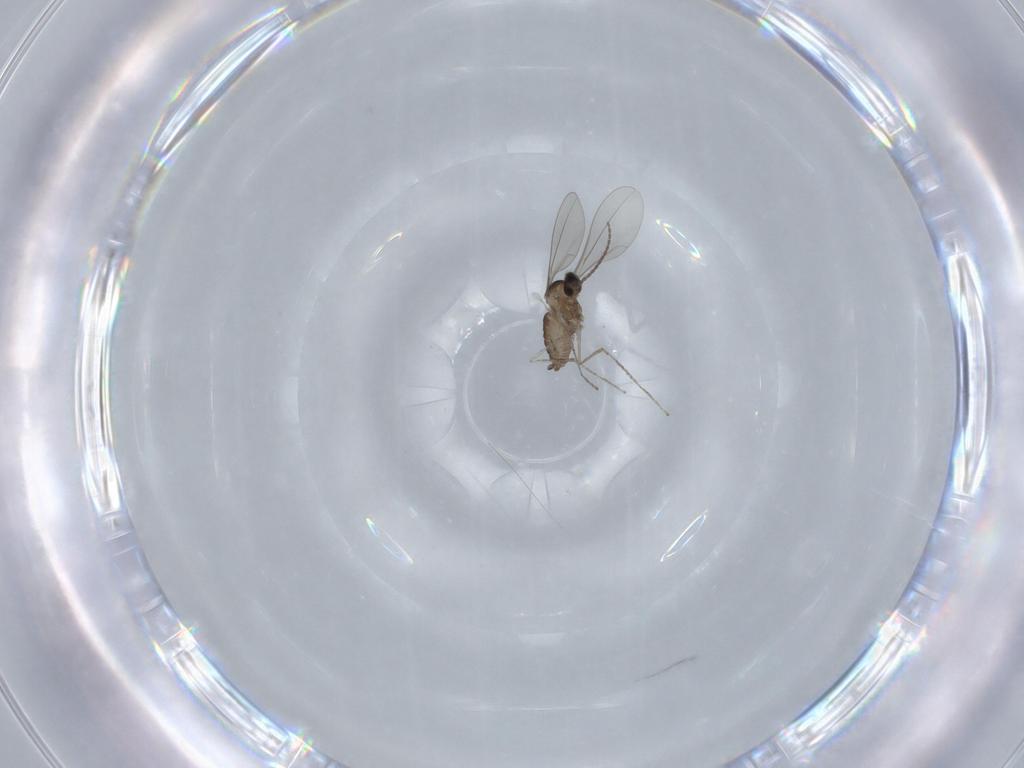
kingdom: Animalia
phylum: Arthropoda
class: Insecta
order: Diptera
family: Cecidomyiidae
